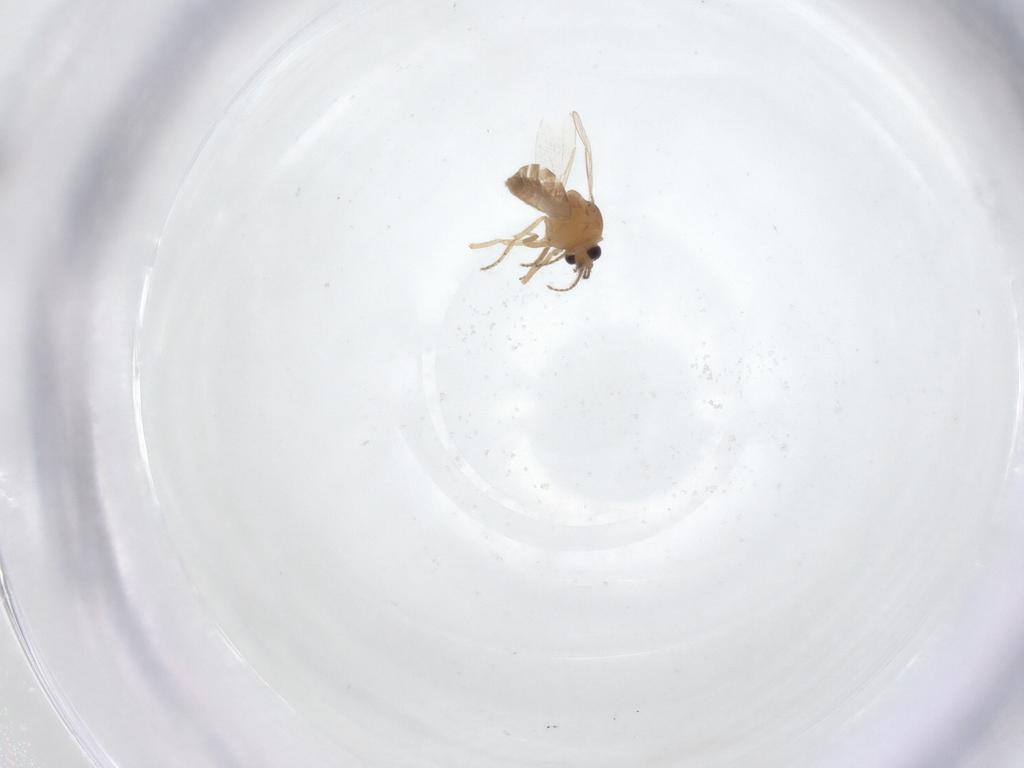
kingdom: Animalia
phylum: Arthropoda
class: Insecta
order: Diptera
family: Ceratopogonidae
